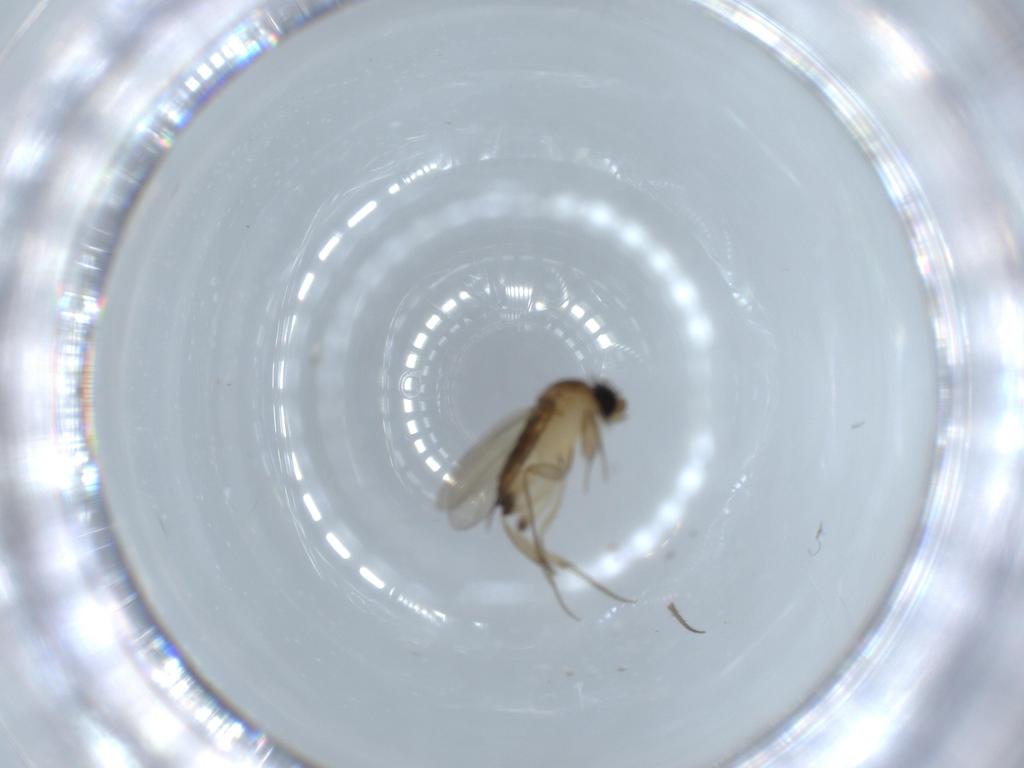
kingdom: Animalia
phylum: Arthropoda
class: Insecta
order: Diptera
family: Phoridae
